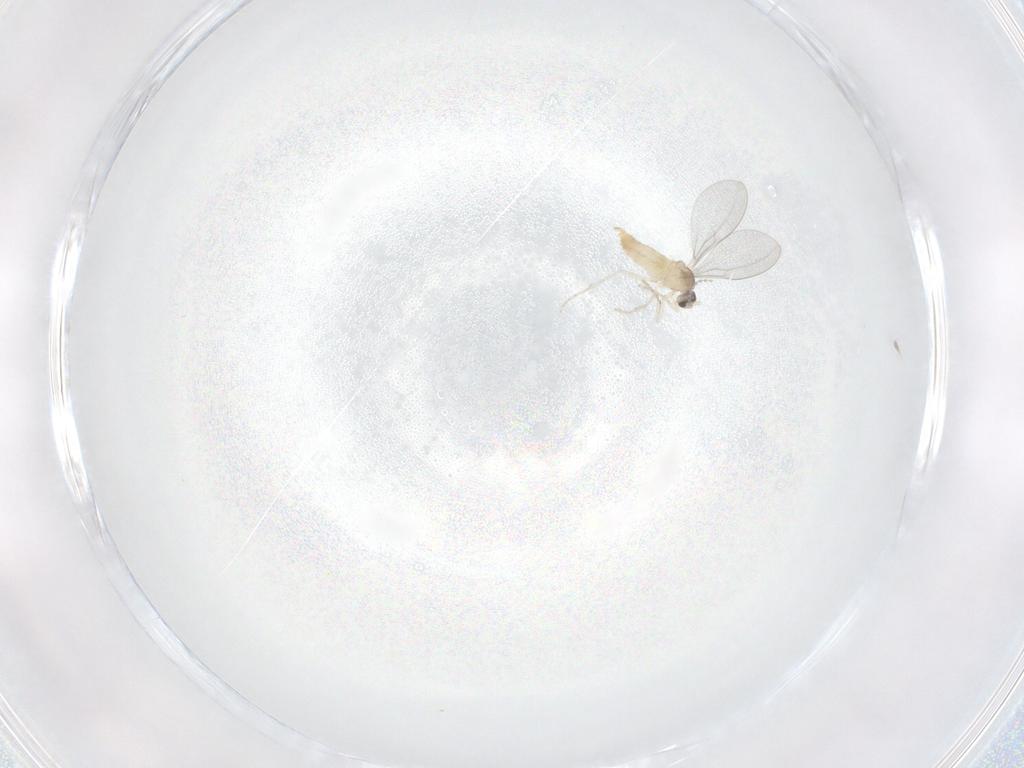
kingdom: Animalia
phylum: Arthropoda
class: Insecta
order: Diptera
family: Cecidomyiidae
